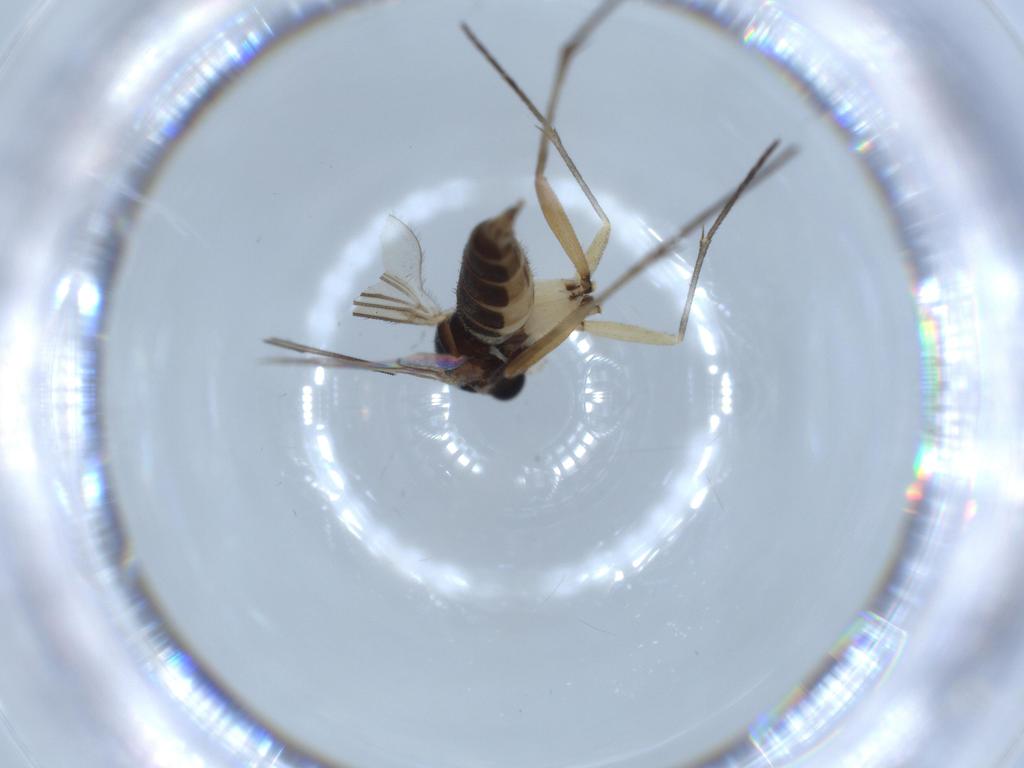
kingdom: Animalia
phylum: Arthropoda
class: Insecta
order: Diptera
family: Sciaridae
